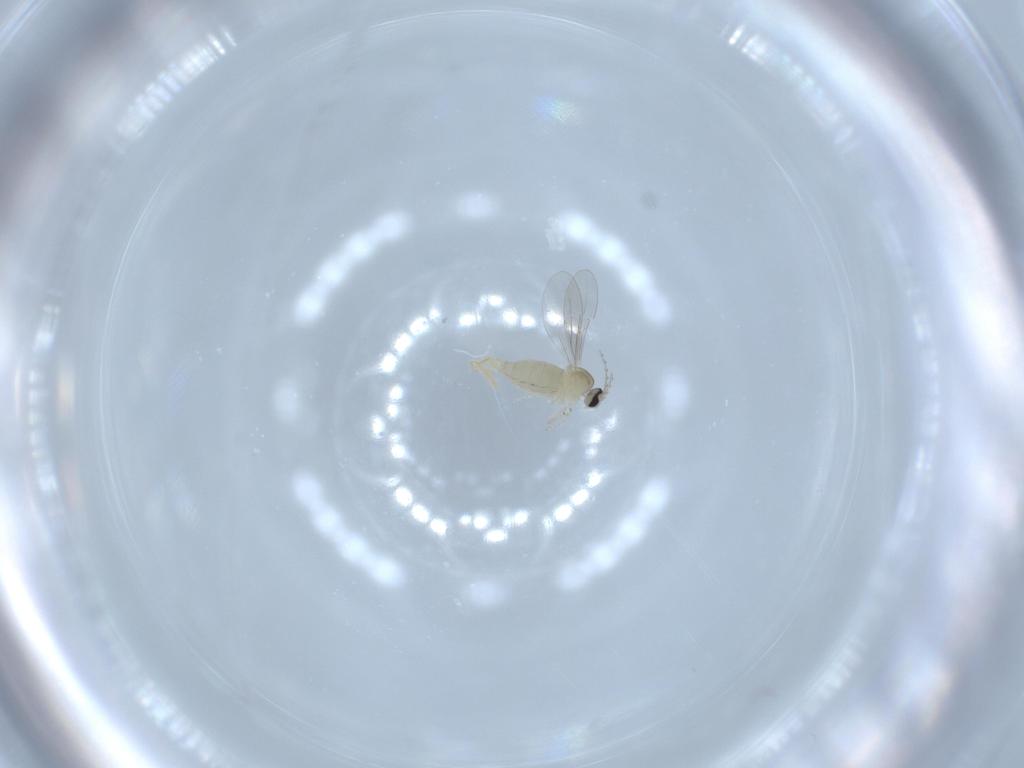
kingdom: Animalia
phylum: Arthropoda
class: Insecta
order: Diptera
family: Cecidomyiidae
